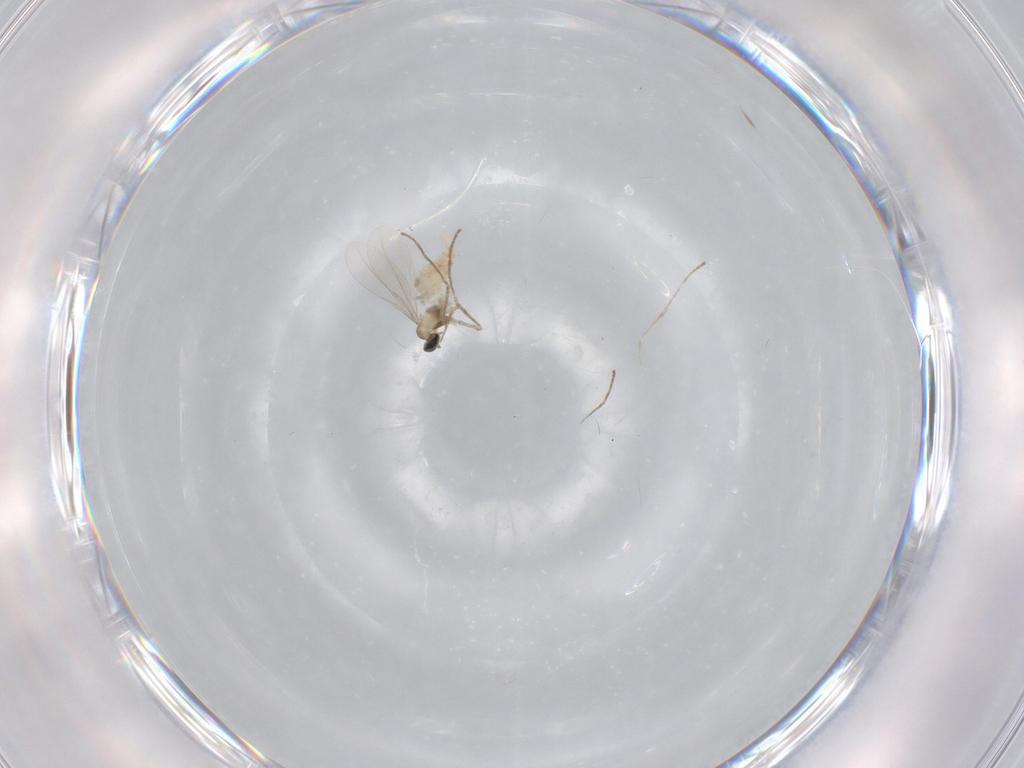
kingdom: Animalia
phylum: Arthropoda
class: Insecta
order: Diptera
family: Cecidomyiidae
